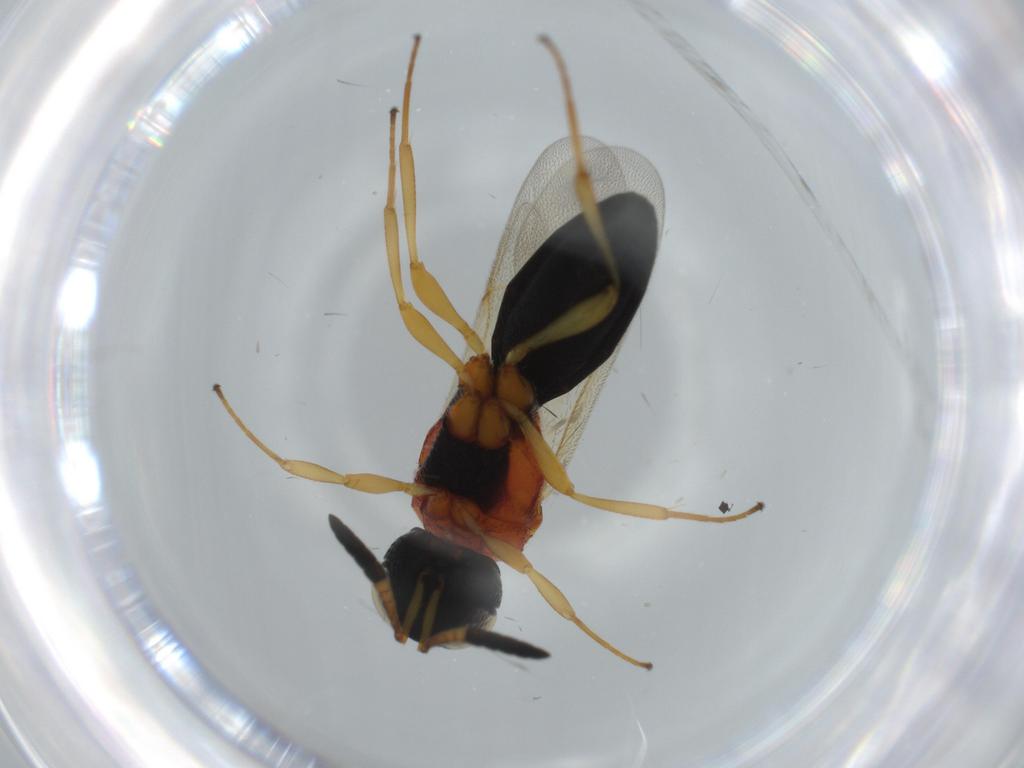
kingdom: Animalia
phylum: Arthropoda
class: Insecta
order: Hymenoptera
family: Scelionidae
